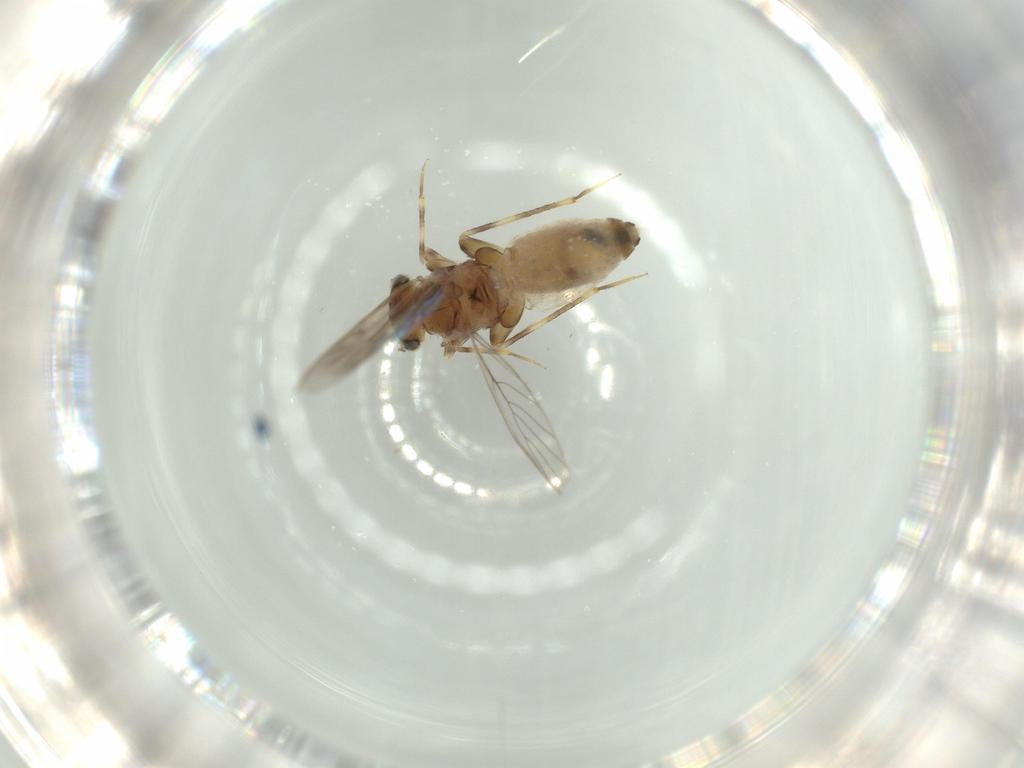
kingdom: Animalia
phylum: Arthropoda
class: Insecta
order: Psocodea
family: Lepidopsocidae
